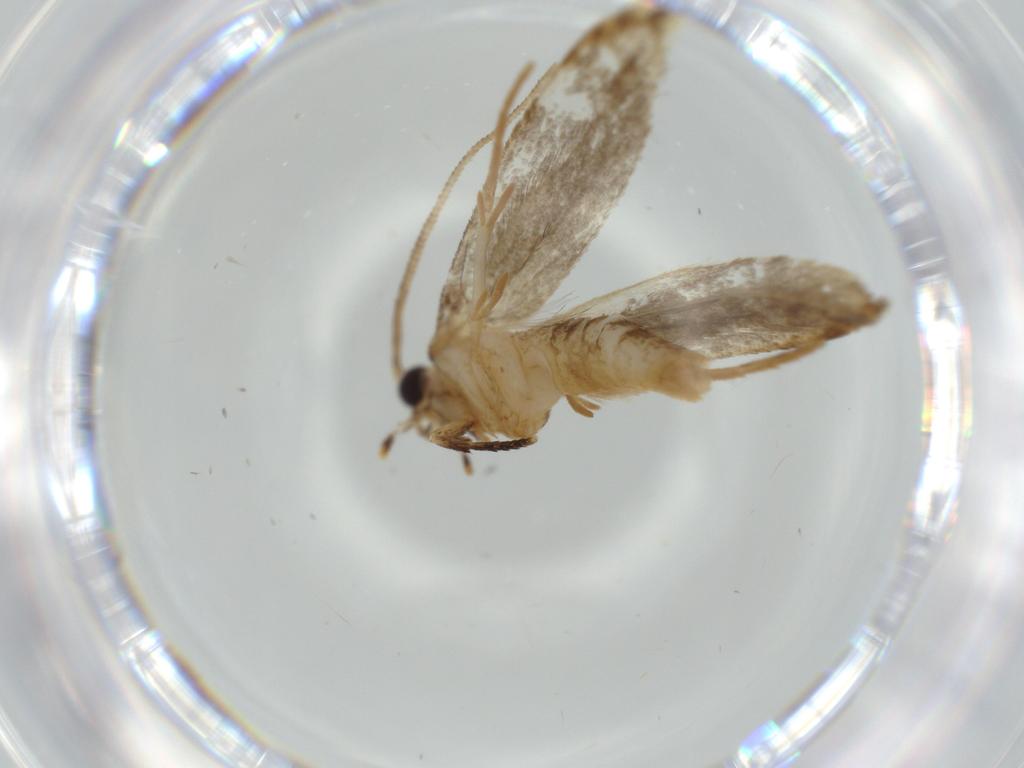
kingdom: Animalia
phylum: Arthropoda
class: Insecta
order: Lepidoptera
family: Tineidae
